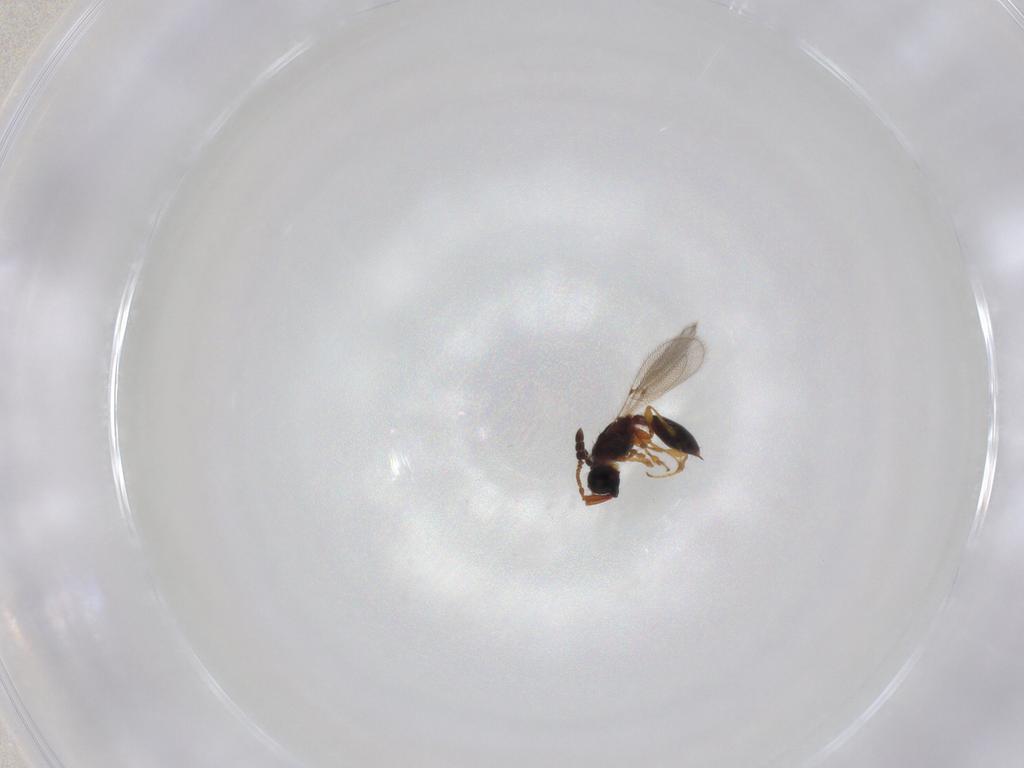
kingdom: Animalia
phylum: Arthropoda
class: Insecta
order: Hymenoptera
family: Diapriidae
